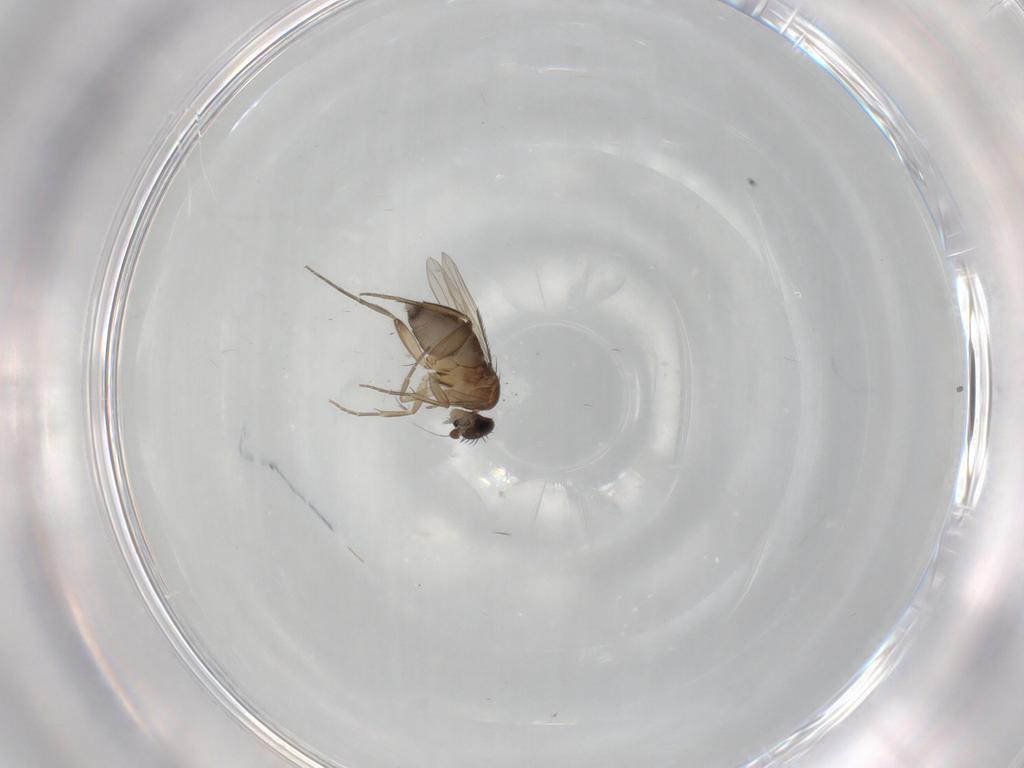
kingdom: Animalia
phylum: Arthropoda
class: Insecta
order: Diptera
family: Phoridae
